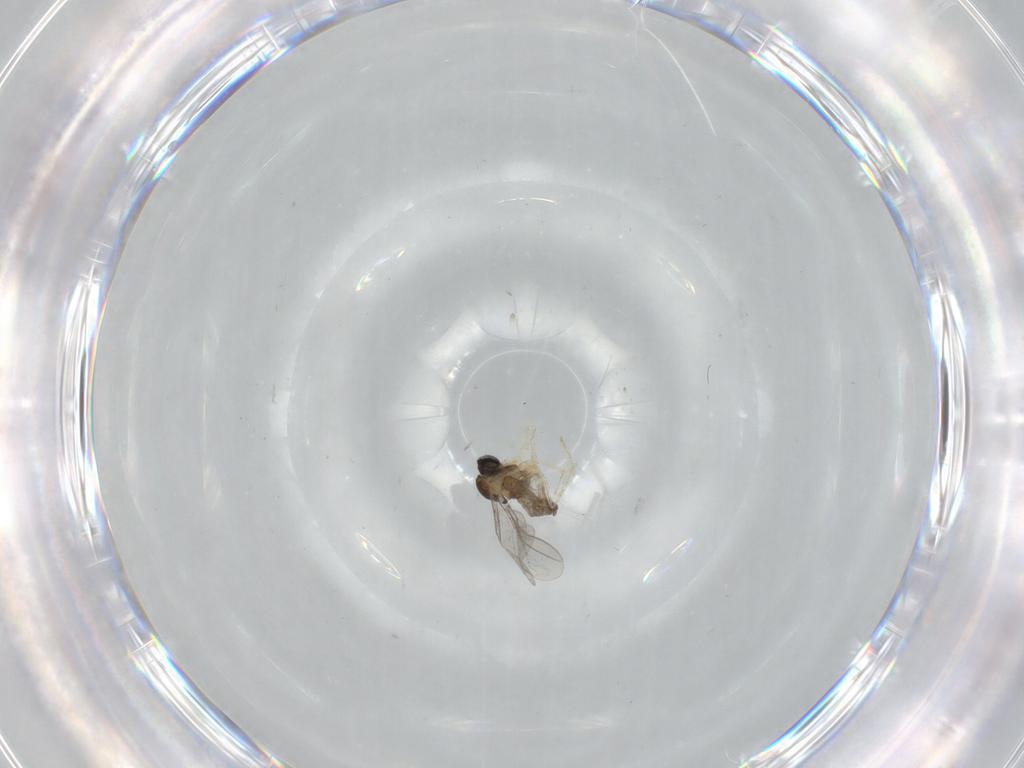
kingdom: Animalia
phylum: Arthropoda
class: Insecta
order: Diptera
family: Cecidomyiidae
